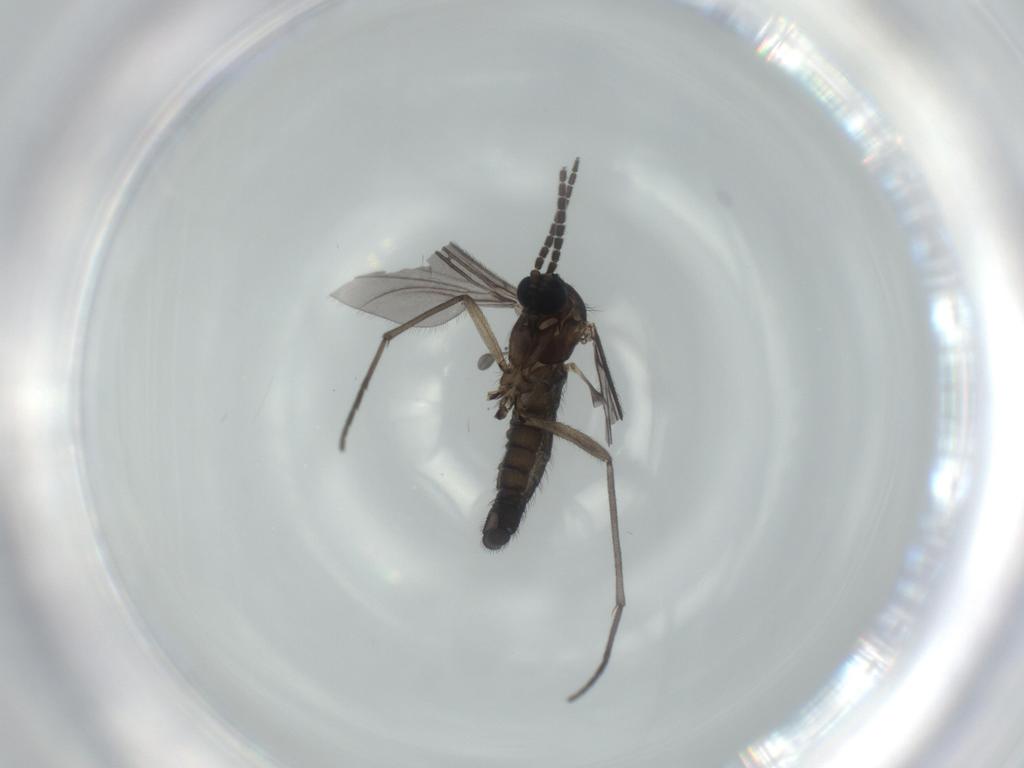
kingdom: Animalia
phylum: Arthropoda
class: Insecta
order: Diptera
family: Sciaridae
